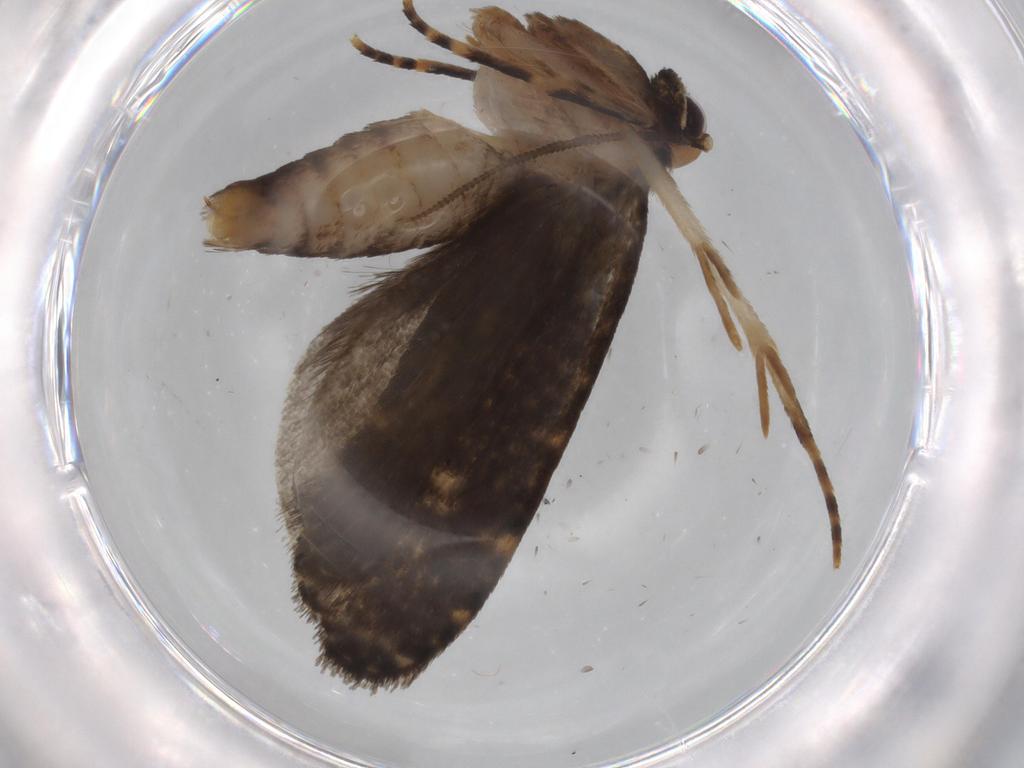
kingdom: Animalia
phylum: Arthropoda
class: Insecta
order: Lepidoptera
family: Tineidae
